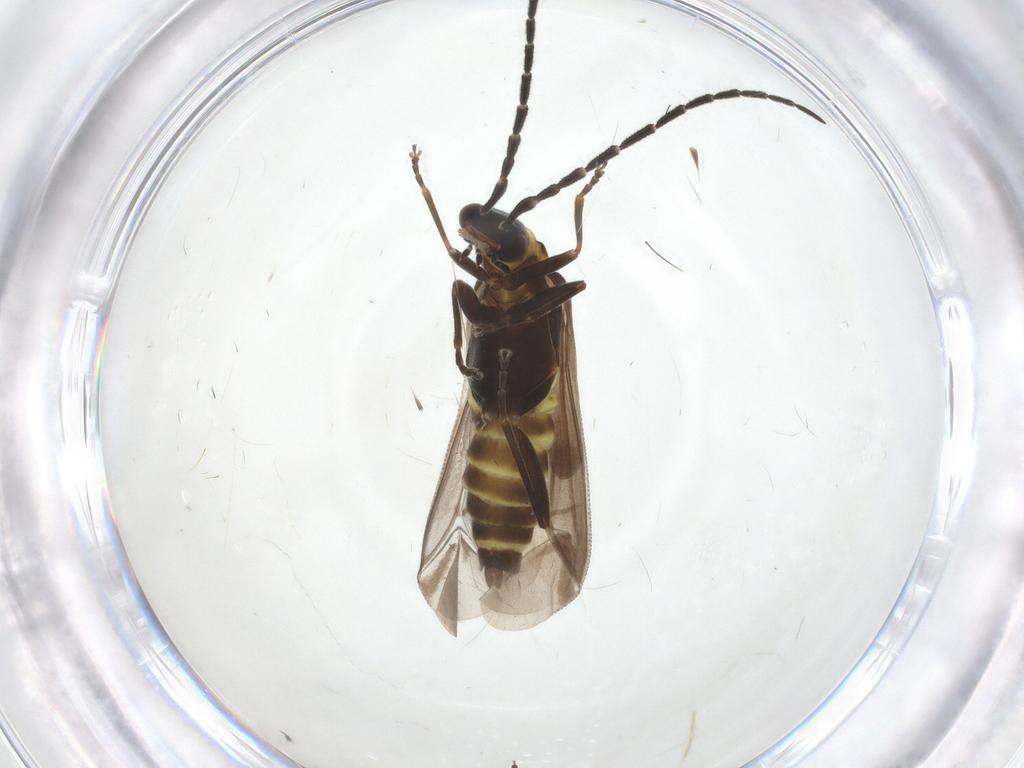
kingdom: Animalia
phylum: Arthropoda
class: Insecta
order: Coleoptera
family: Cantharidae
